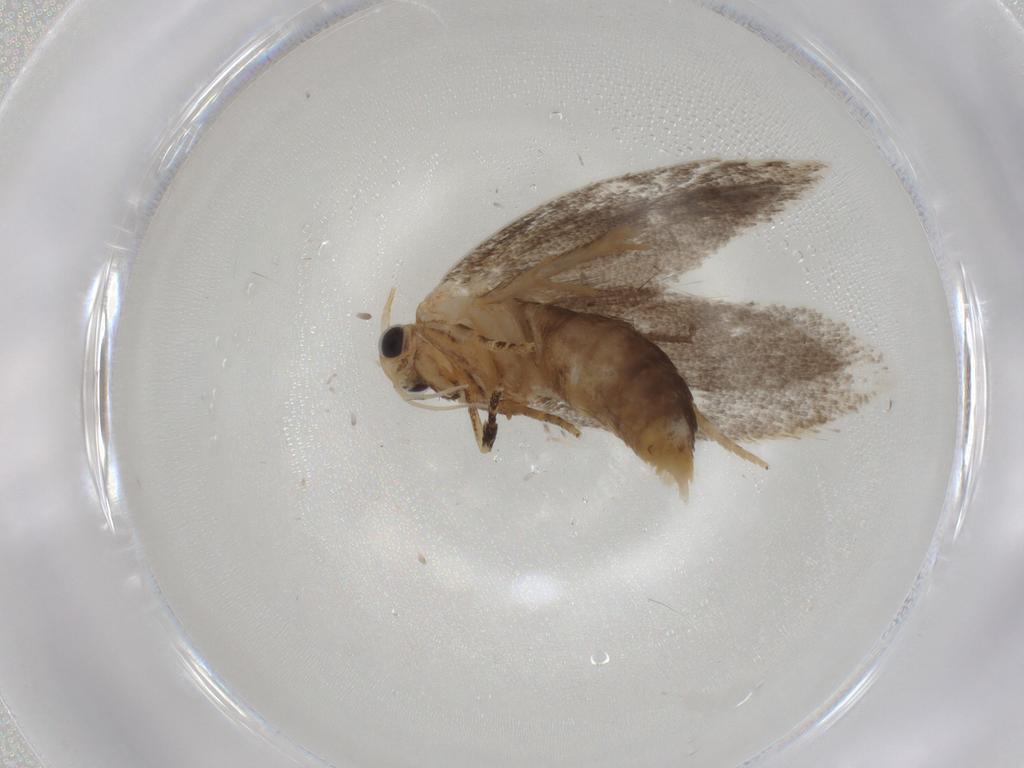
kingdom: Animalia
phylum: Arthropoda
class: Insecta
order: Lepidoptera
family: Oecophoridae
